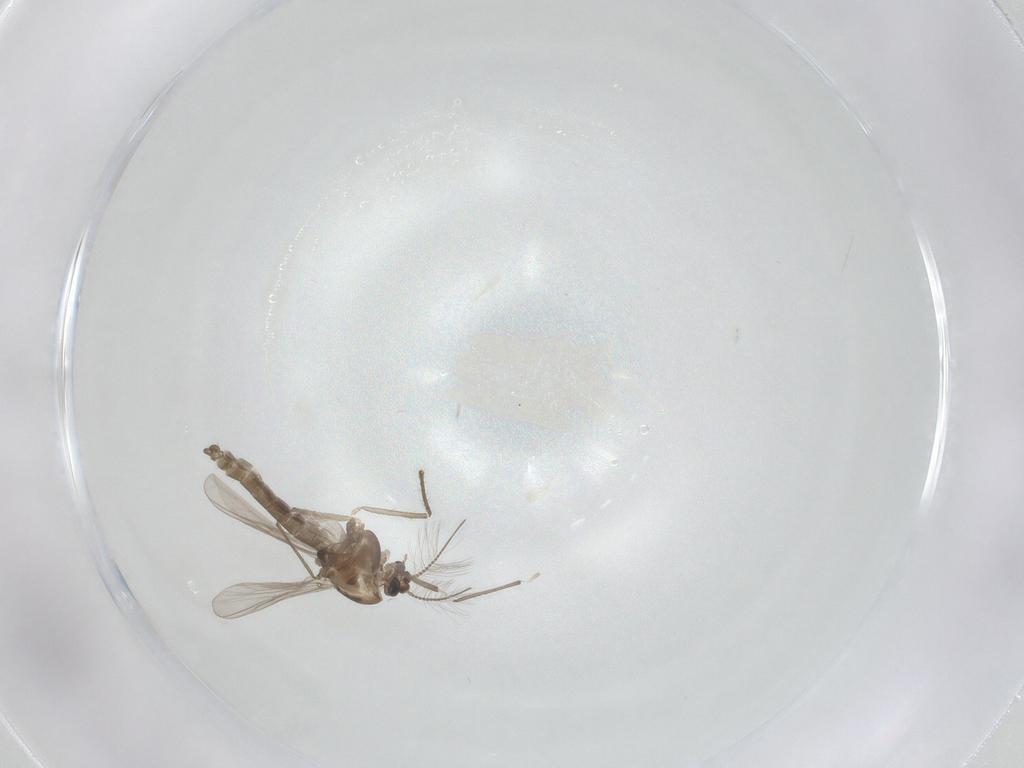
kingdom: Animalia
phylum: Arthropoda
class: Insecta
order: Diptera
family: Chironomidae
